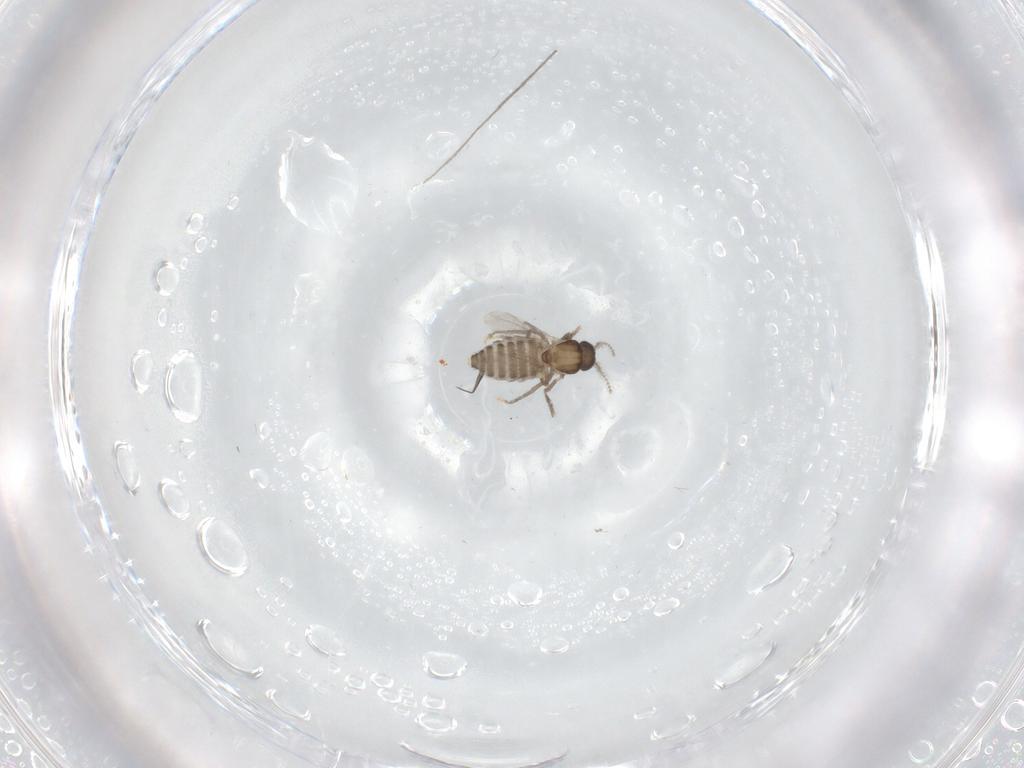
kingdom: Animalia
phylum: Arthropoda
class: Insecta
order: Diptera
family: Ceratopogonidae
